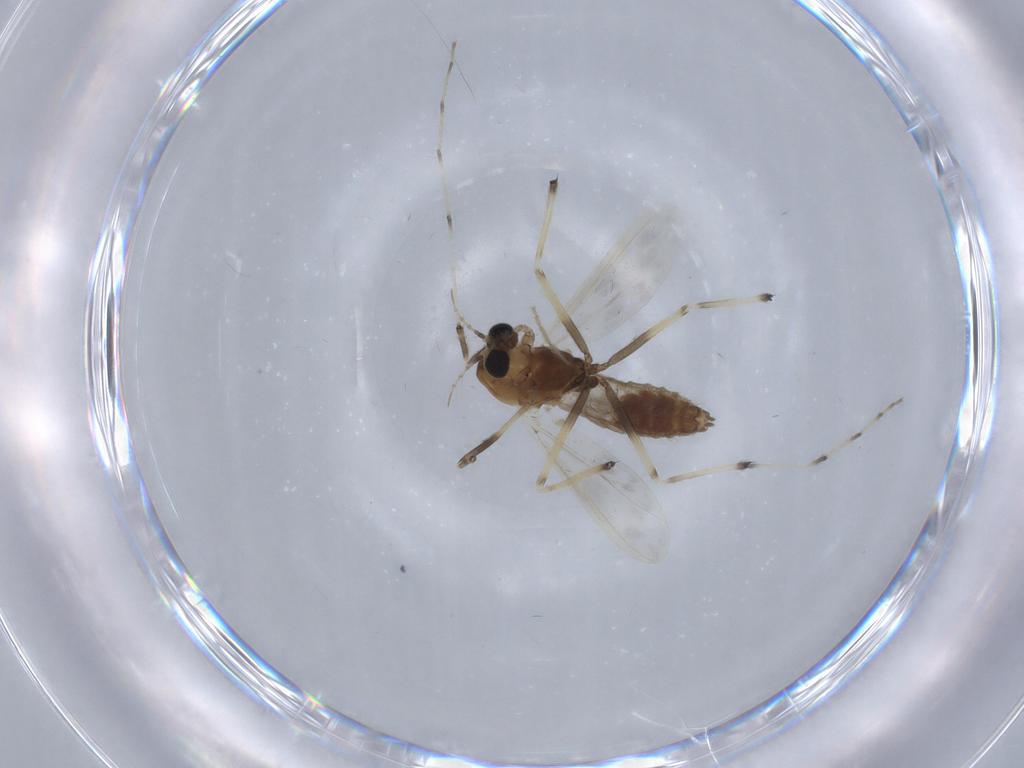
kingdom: Animalia
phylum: Arthropoda
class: Insecta
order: Diptera
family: Chironomidae
